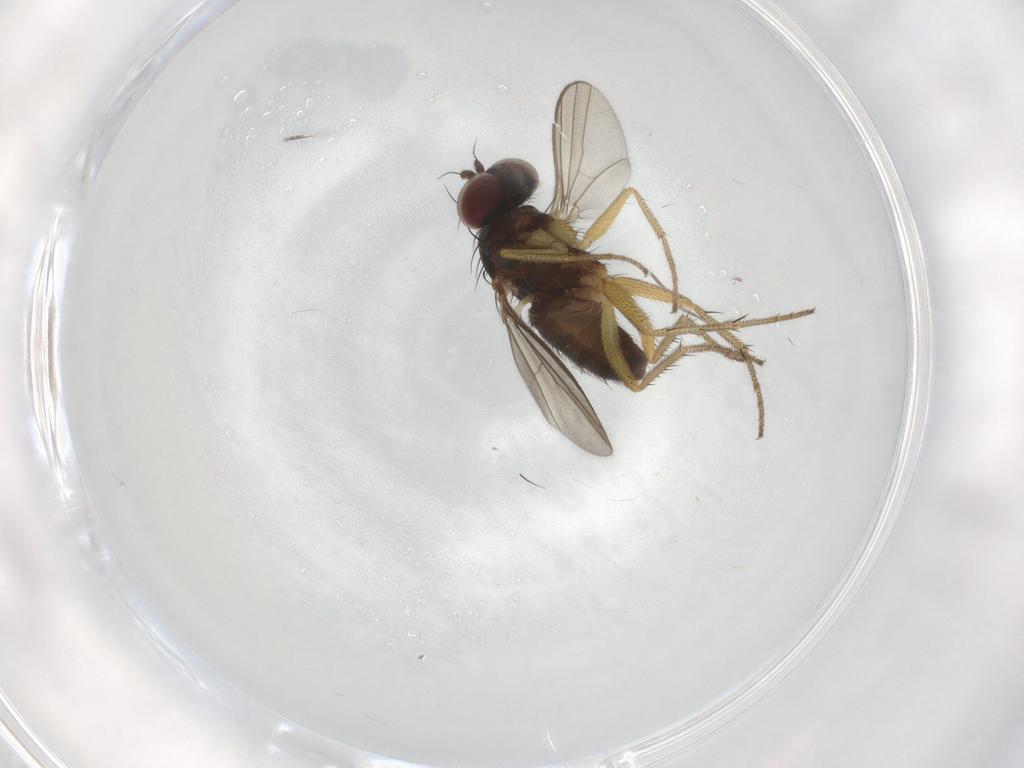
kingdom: Animalia
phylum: Arthropoda
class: Insecta
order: Diptera
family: Dolichopodidae
